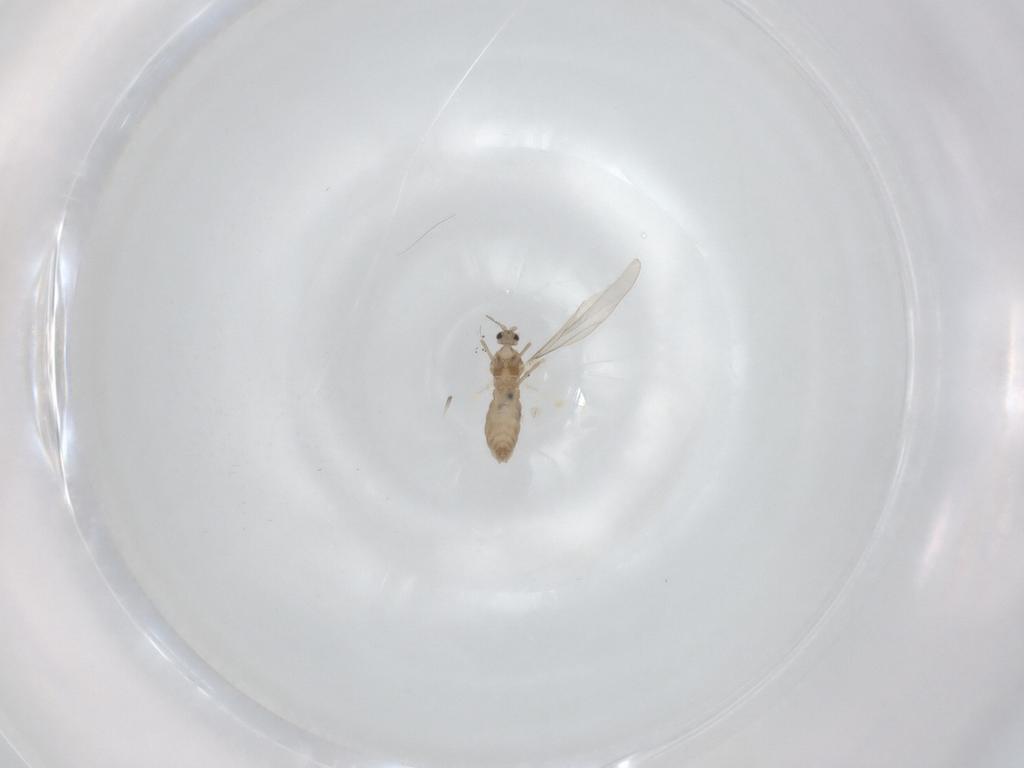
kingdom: Animalia
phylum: Arthropoda
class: Insecta
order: Diptera
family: Cecidomyiidae
